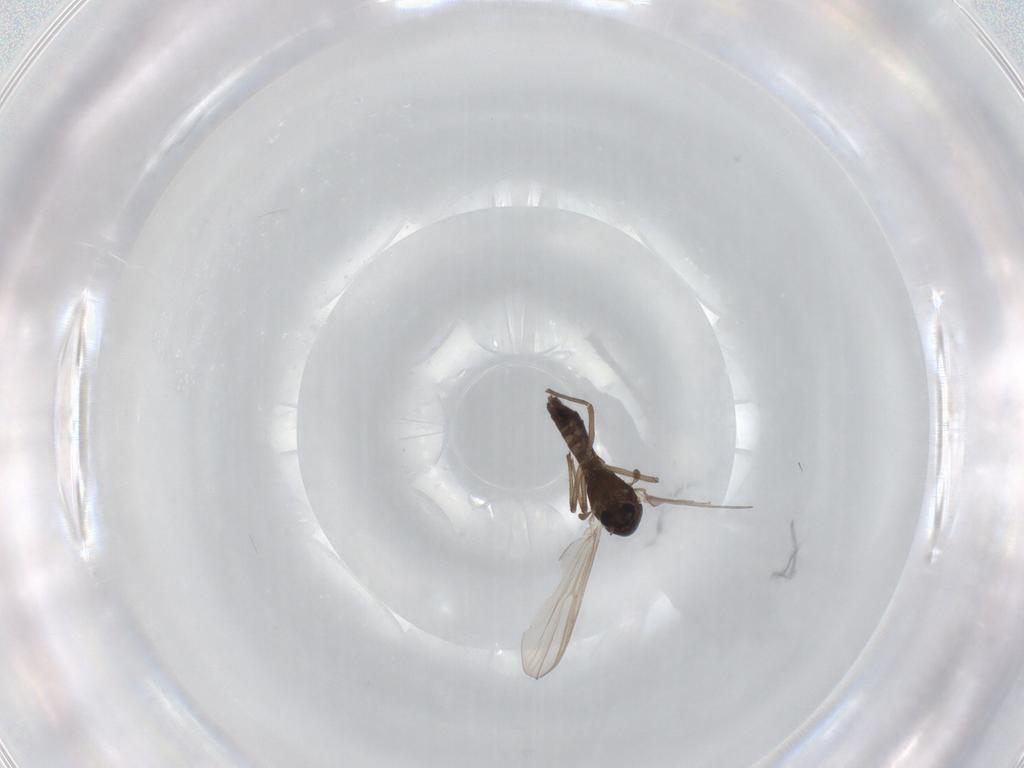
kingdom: Animalia
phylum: Arthropoda
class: Insecta
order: Diptera
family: Chironomidae
